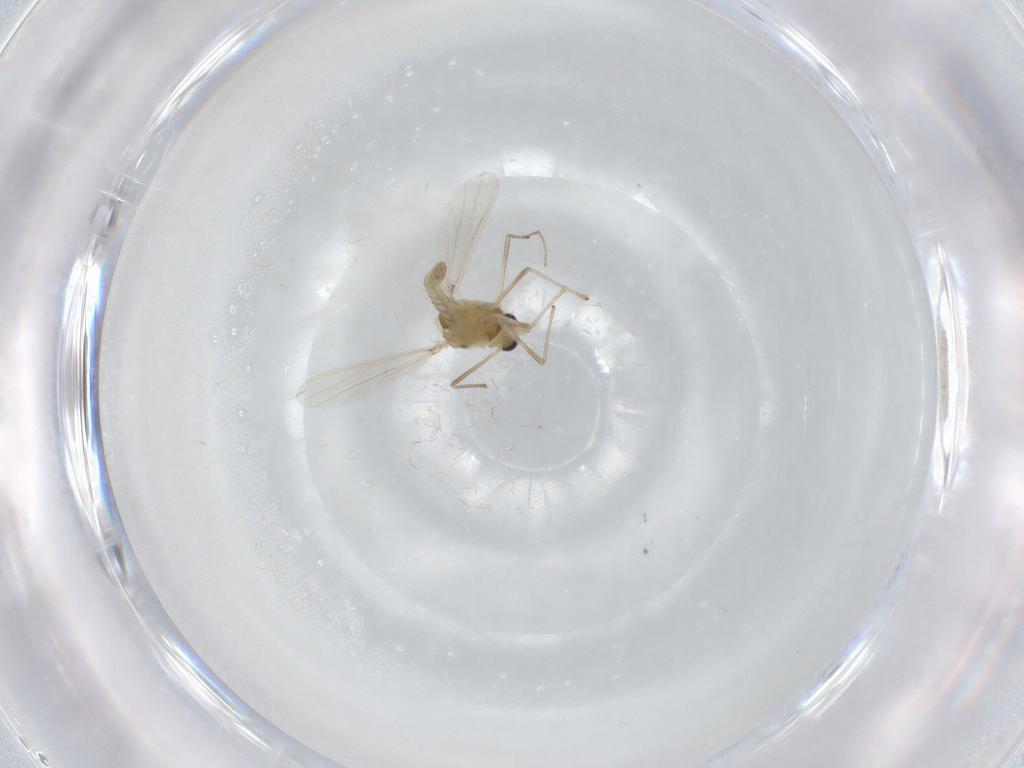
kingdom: Animalia
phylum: Arthropoda
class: Insecta
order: Diptera
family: Chironomidae
